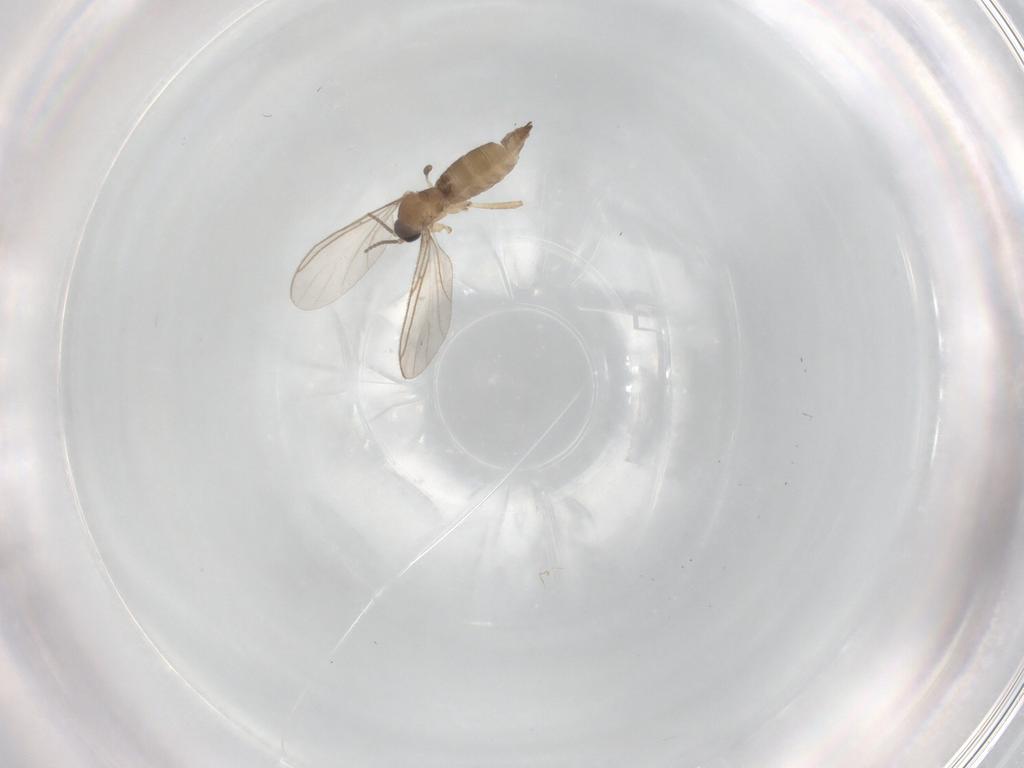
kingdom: Animalia
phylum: Arthropoda
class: Insecta
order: Diptera
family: Sciaridae
